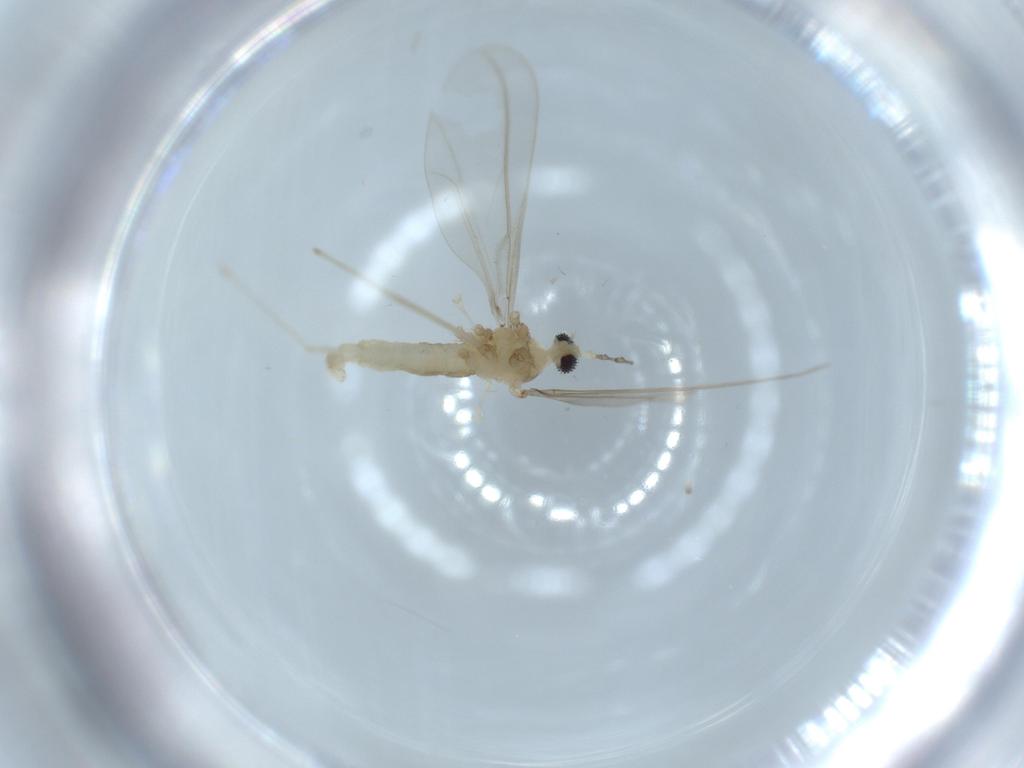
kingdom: Animalia
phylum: Arthropoda
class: Insecta
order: Diptera
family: Cecidomyiidae
